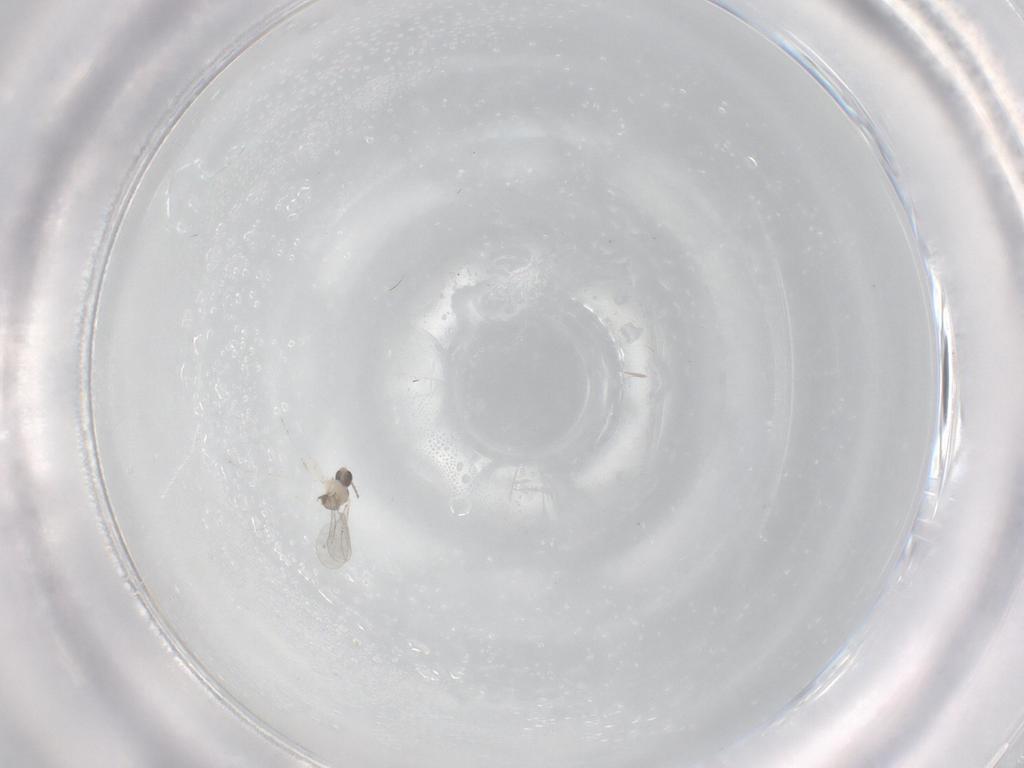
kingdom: Animalia
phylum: Arthropoda
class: Insecta
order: Diptera
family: Cecidomyiidae
